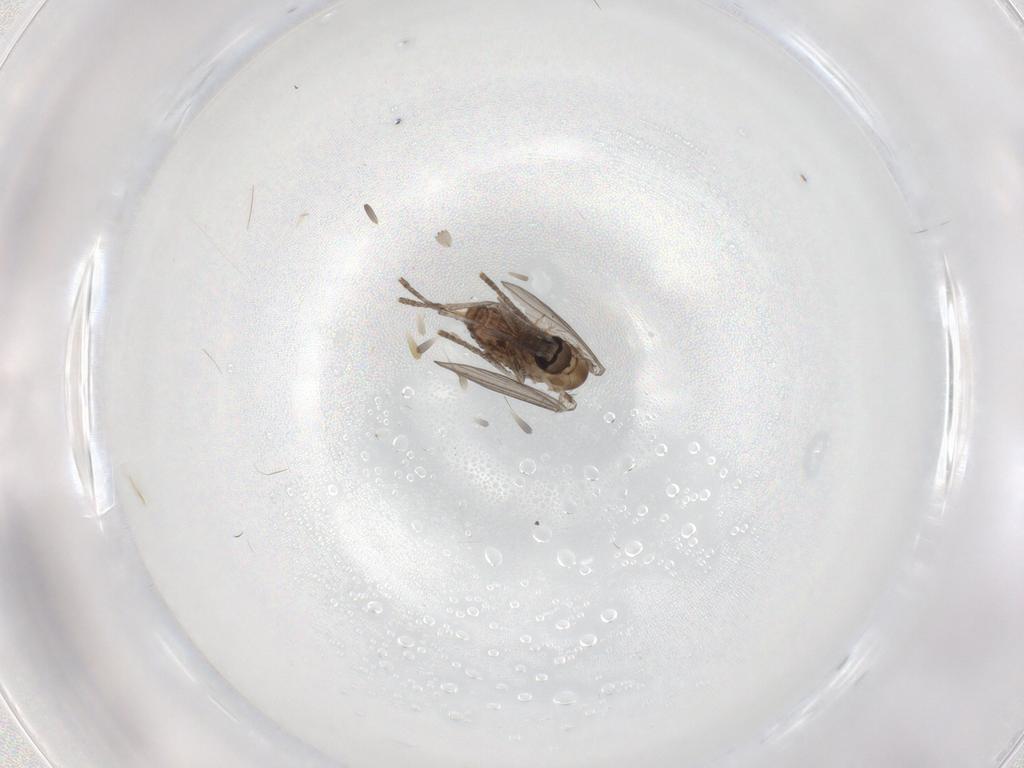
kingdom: Animalia
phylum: Arthropoda
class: Insecta
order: Diptera
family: Psychodidae
